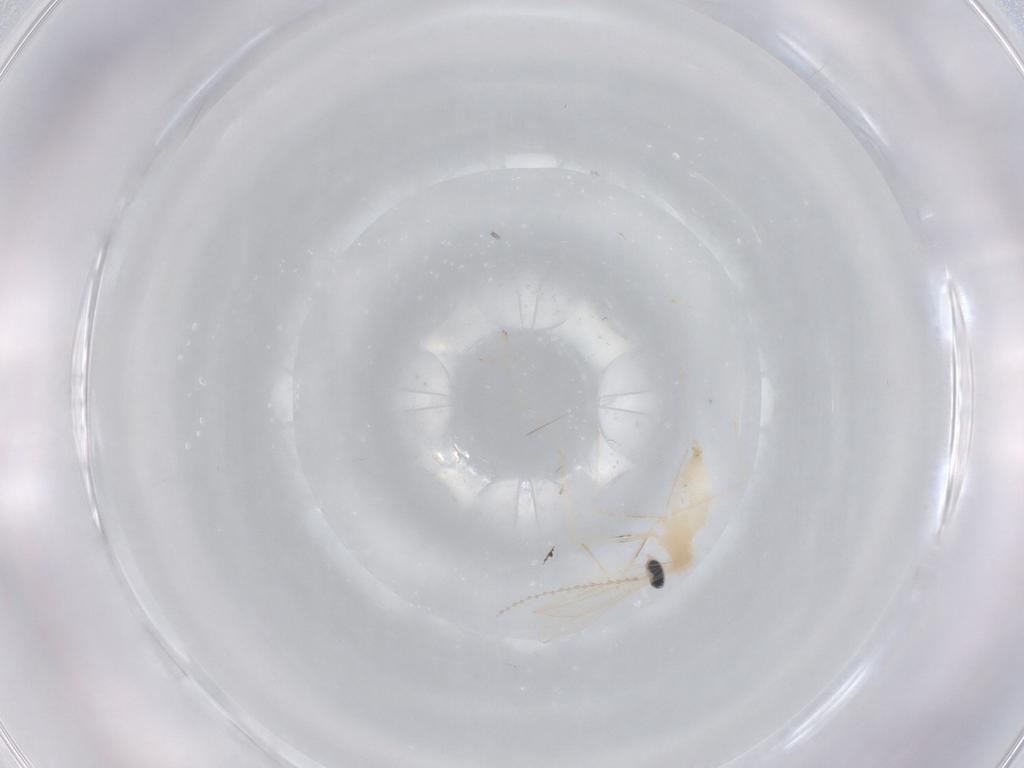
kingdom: Animalia
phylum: Arthropoda
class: Insecta
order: Diptera
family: Cecidomyiidae
